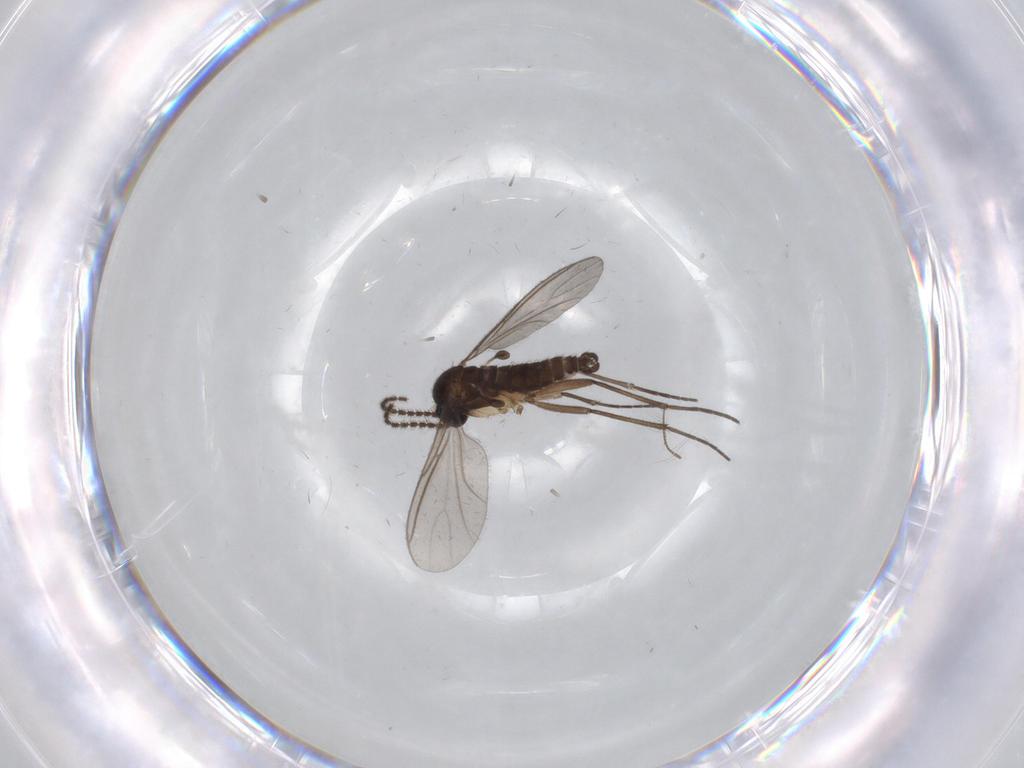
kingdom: Animalia
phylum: Arthropoda
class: Insecta
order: Diptera
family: Chironomidae
